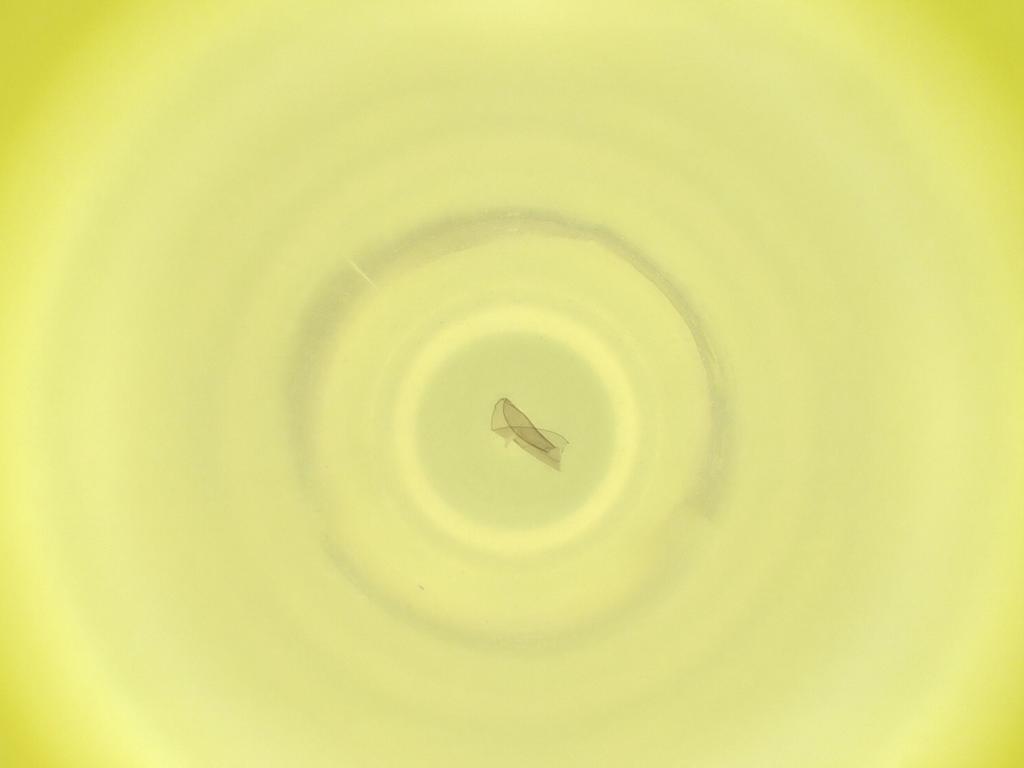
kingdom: Animalia
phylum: Arthropoda
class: Insecta
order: Diptera
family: Cecidomyiidae
